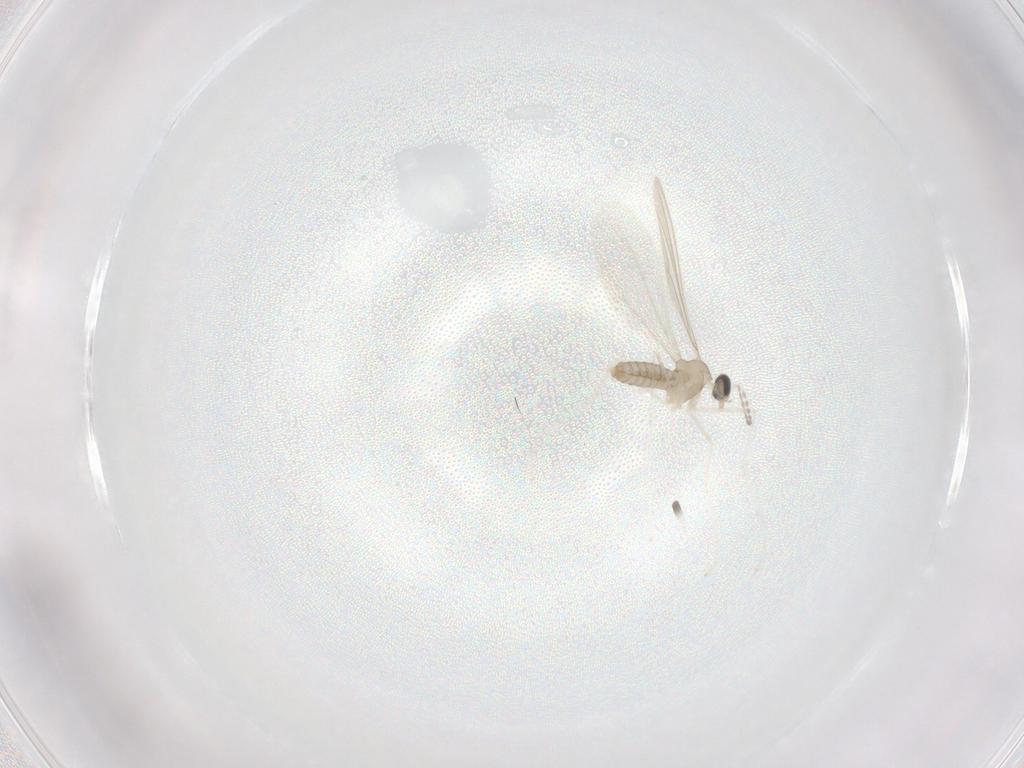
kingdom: Animalia
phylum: Arthropoda
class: Insecta
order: Diptera
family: Cecidomyiidae
